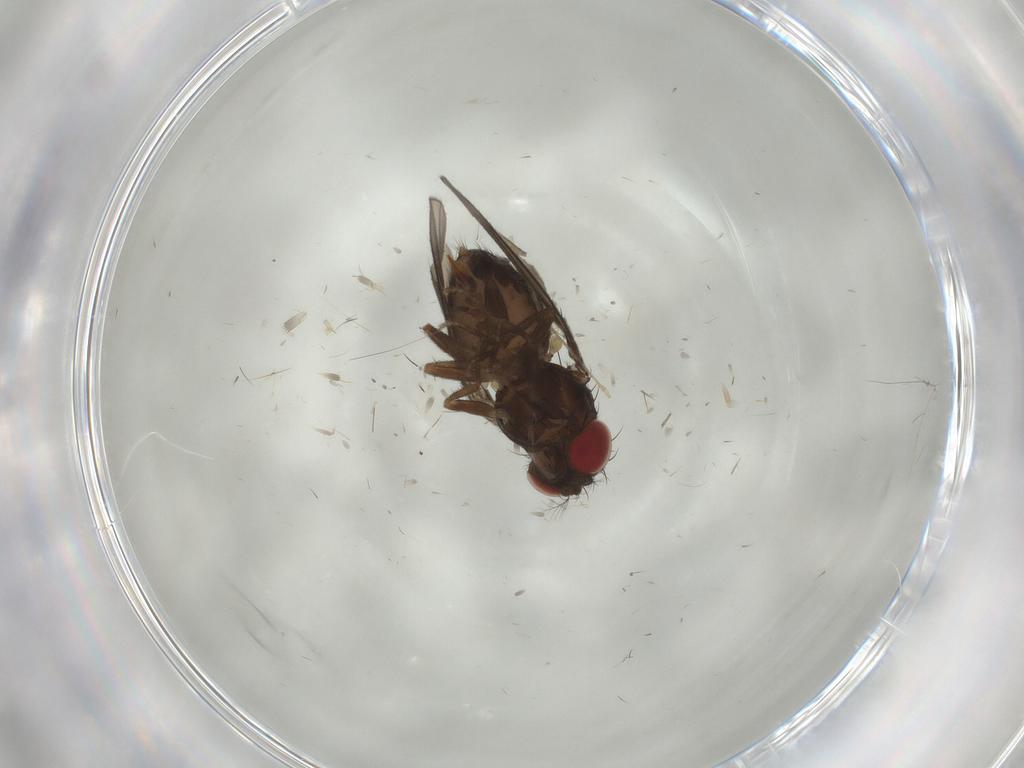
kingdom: Animalia
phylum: Arthropoda
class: Insecta
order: Diptera
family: Drosophilidae
